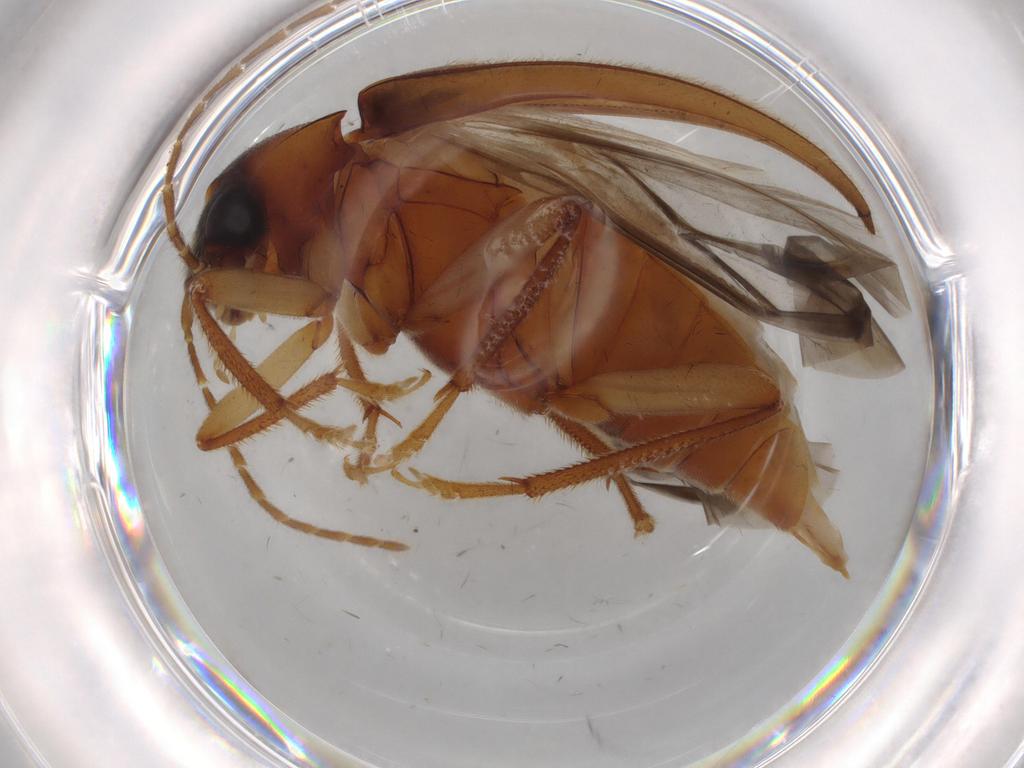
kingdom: Animalia
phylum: Arthropoda
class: Insecta
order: Coleoptera
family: Ptilodactylidae
